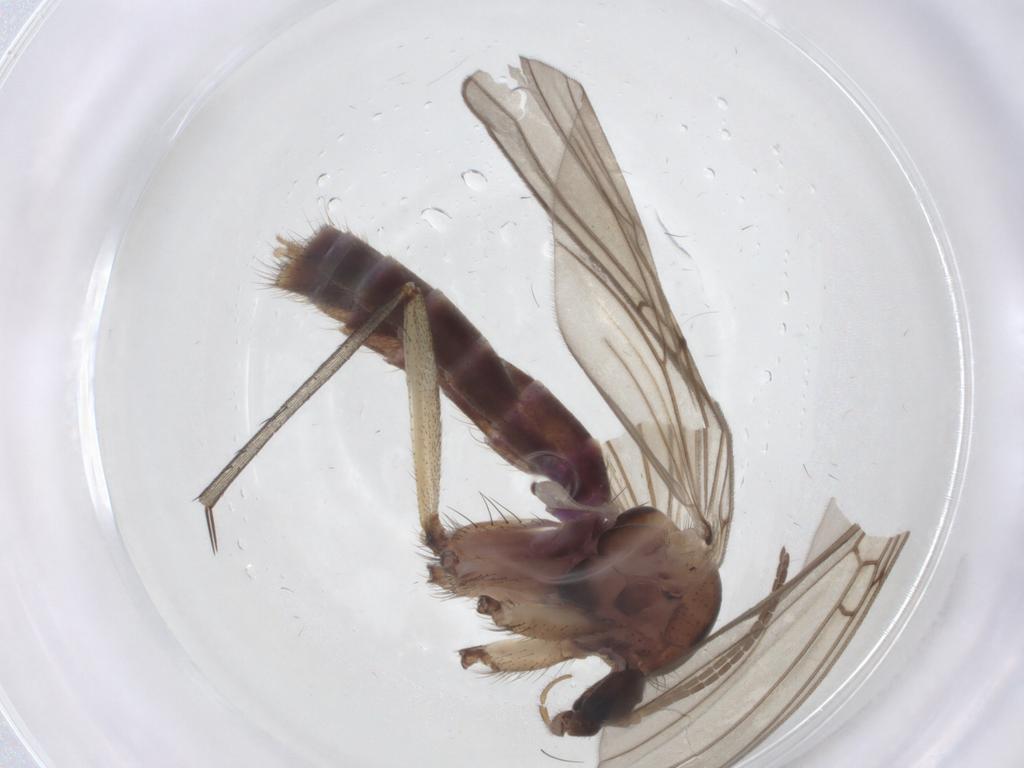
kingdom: Animalia
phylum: Arthropoda
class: Insecta
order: Diptera
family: Mycetophilidae
